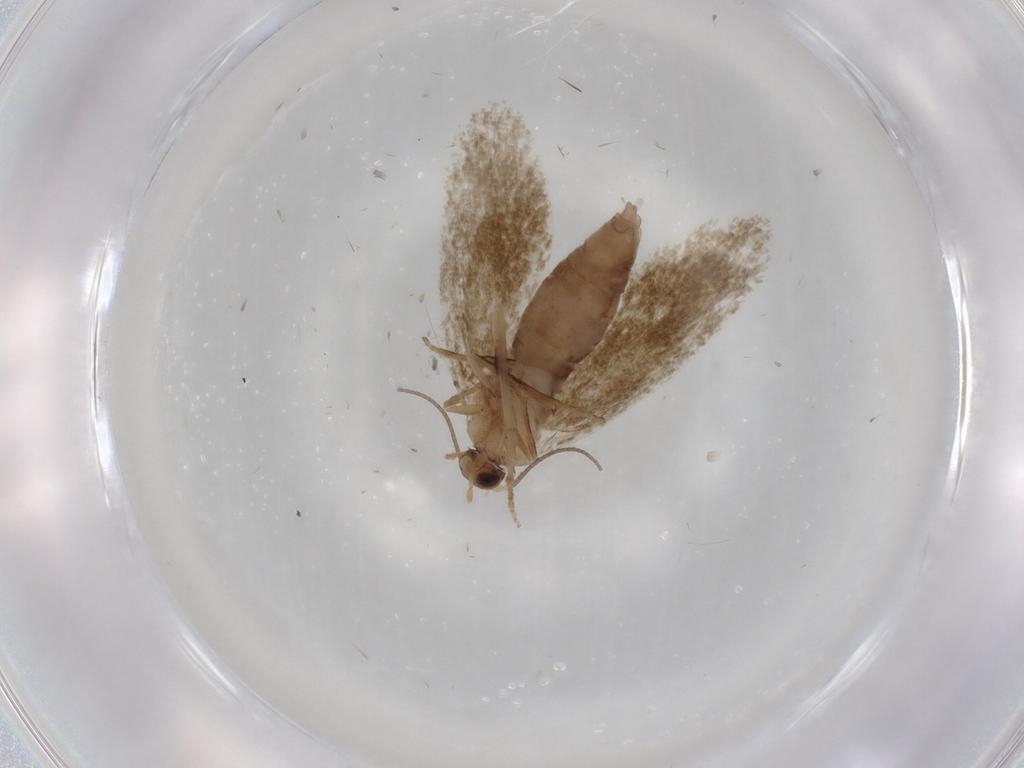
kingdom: Animalia
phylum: Arthropoda
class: Insecta
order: Lepidoptera
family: Tineidae
